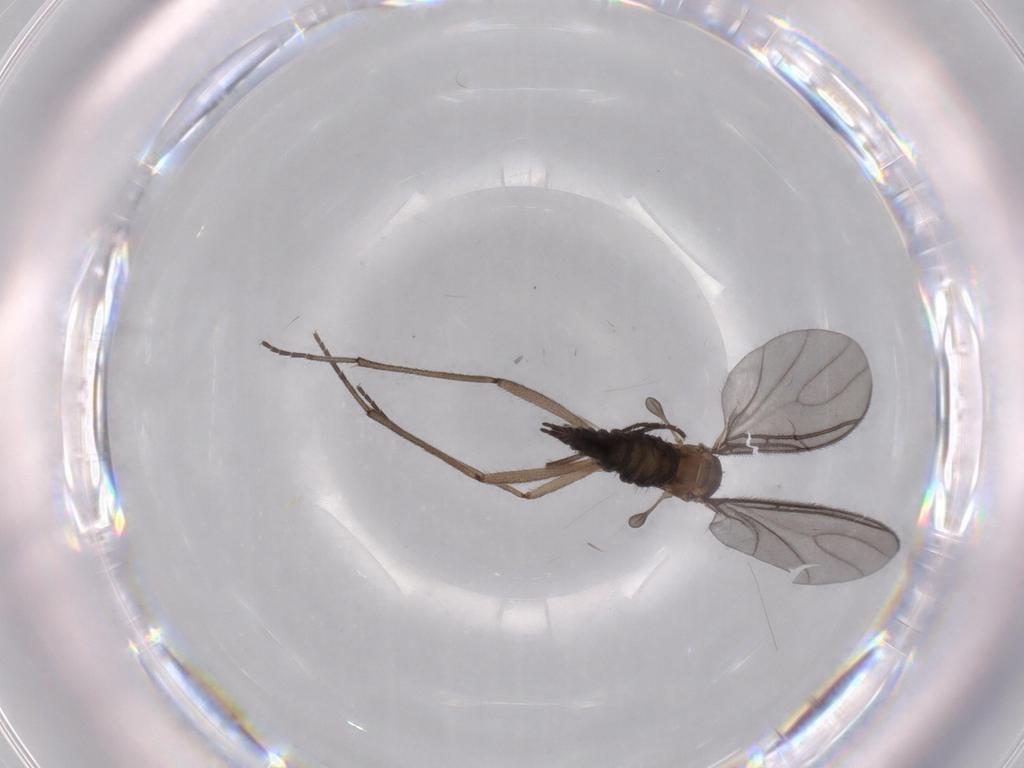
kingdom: Animalia
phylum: Arthropoda
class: Insecta
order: Diptera
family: Sciaridae
